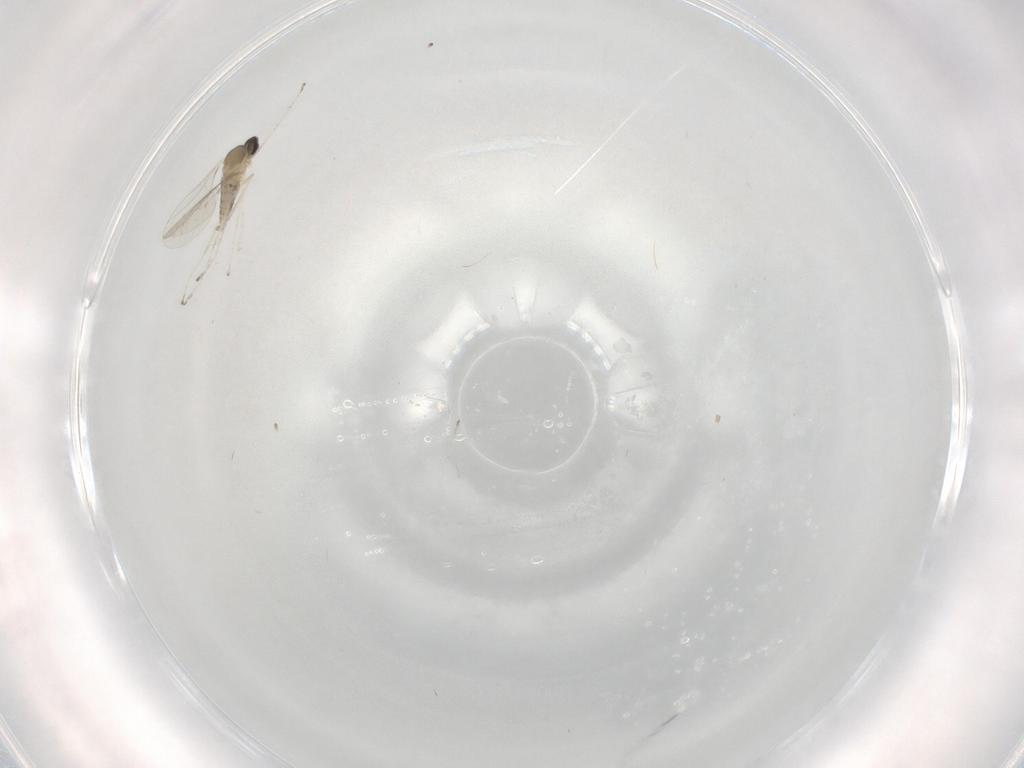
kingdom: Animalia
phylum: Arthropoda
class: Insecta
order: Diptera
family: Cecidomyiidae
